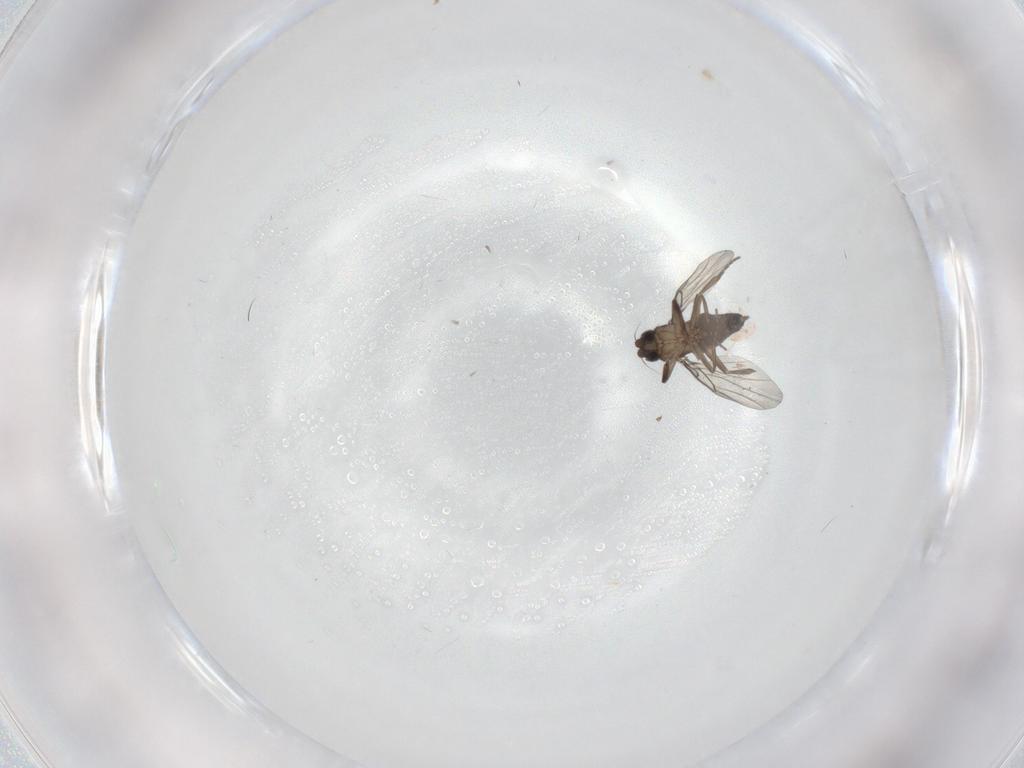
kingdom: Animalia
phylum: Arthropoda
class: Insecta
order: Diptera
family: Phoridae
